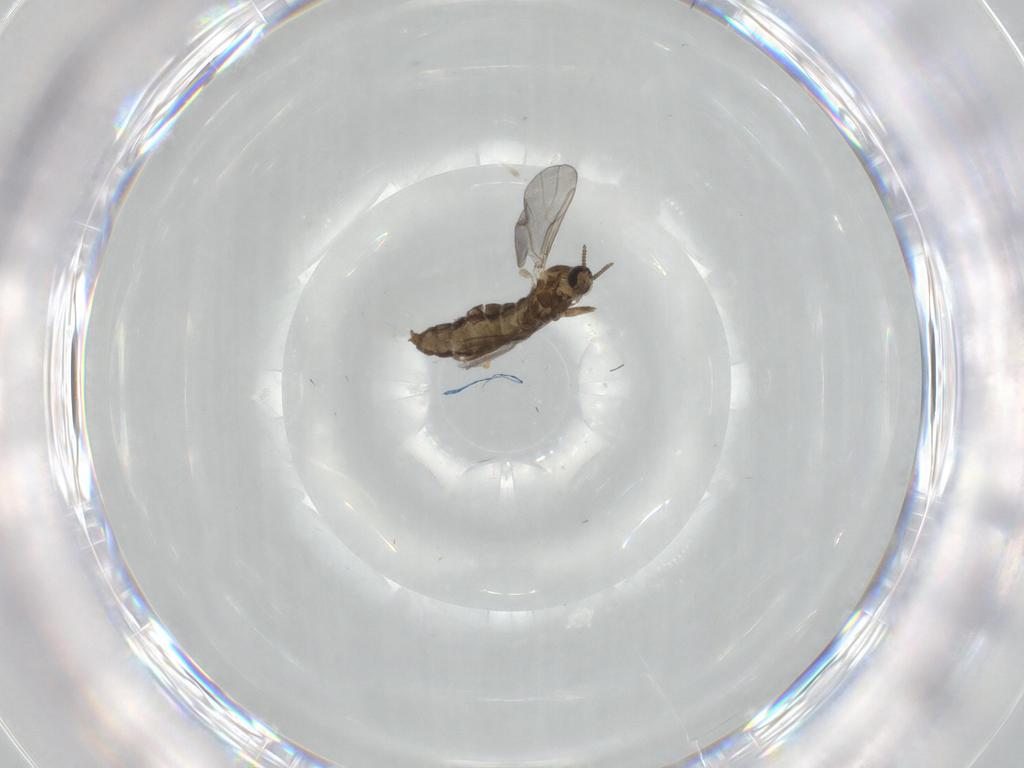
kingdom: Animalia
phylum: Arthropoda
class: Insecta
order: Diptera
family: Cecidomyiidae
